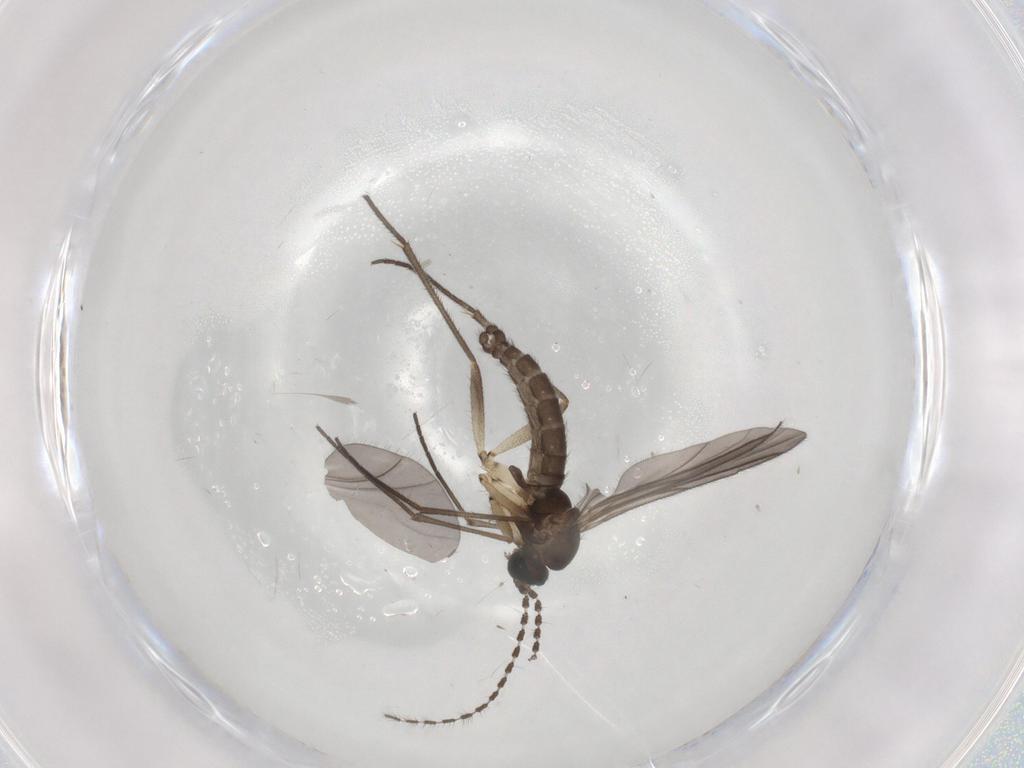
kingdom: Animalia
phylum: Arthropoda
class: Insecta
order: Diptera
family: Sciaridae
